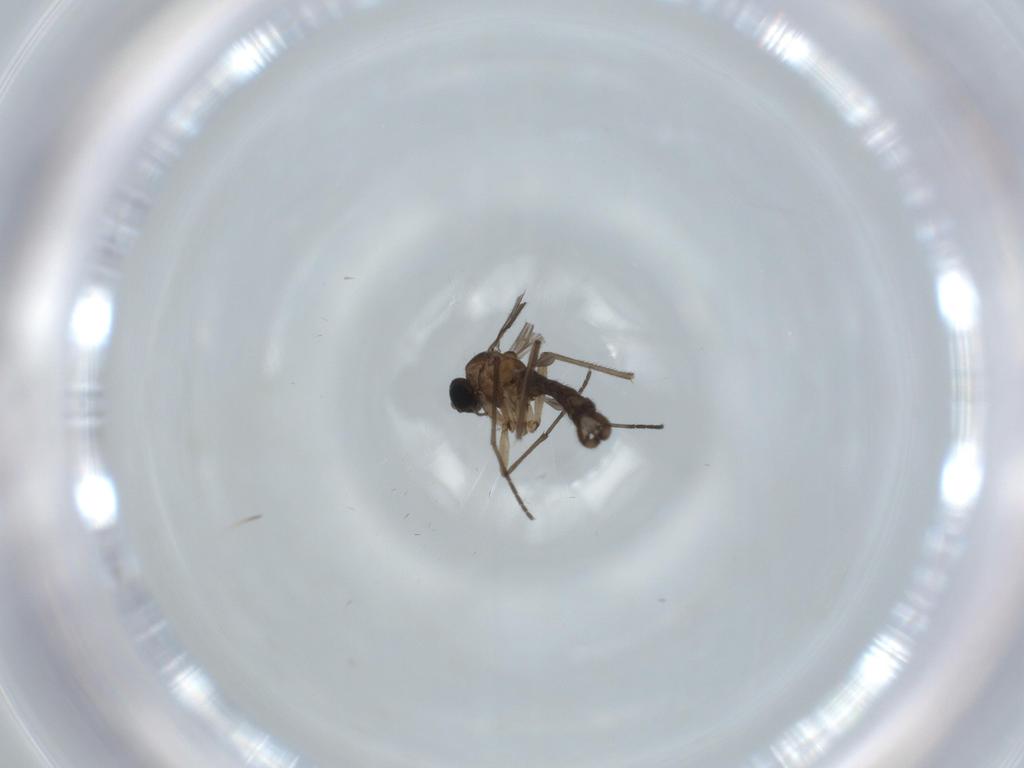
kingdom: Animalia
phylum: Arthropoda
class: Insecta
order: Diptera
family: Sciaridae
